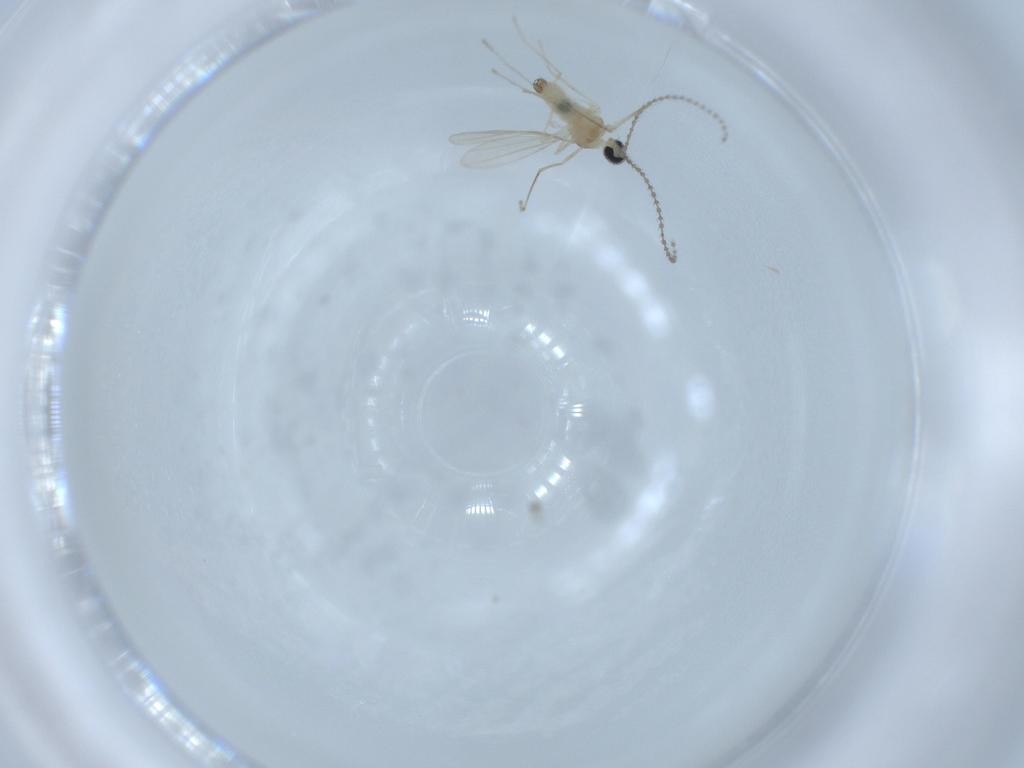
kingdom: Animalia
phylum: Arthropoda
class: Insecta
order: Diptera
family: Cecidomyiidae
